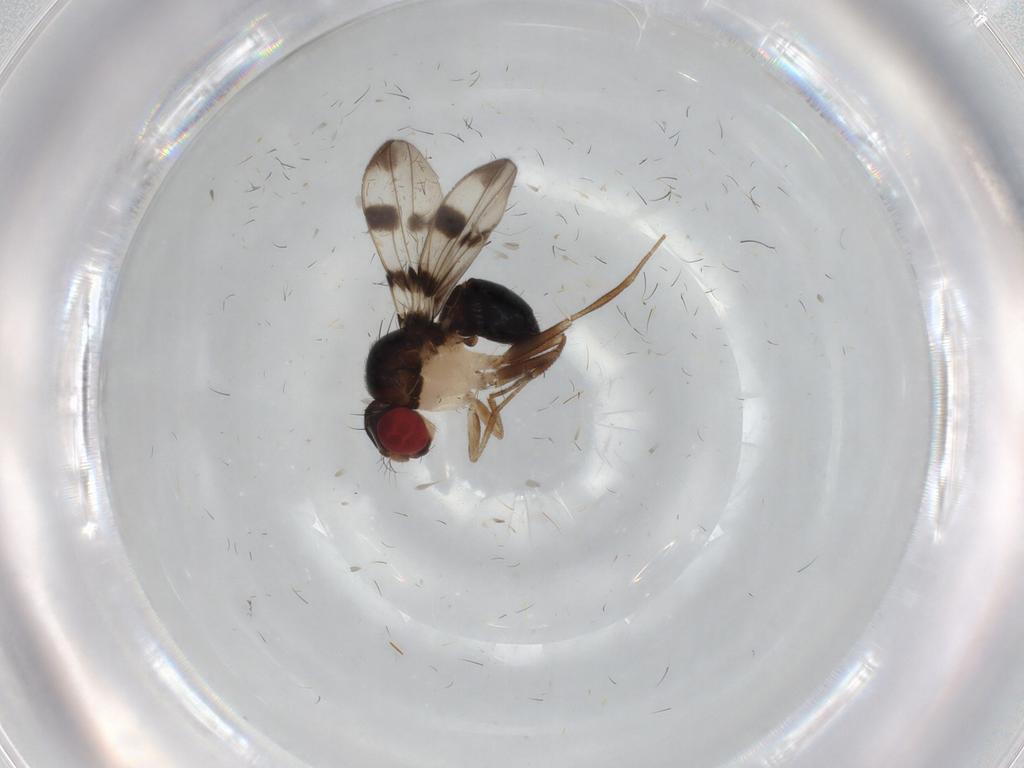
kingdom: Animalia
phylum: Arthropoda
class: Insecta
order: Diptera
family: Drosophilidae
